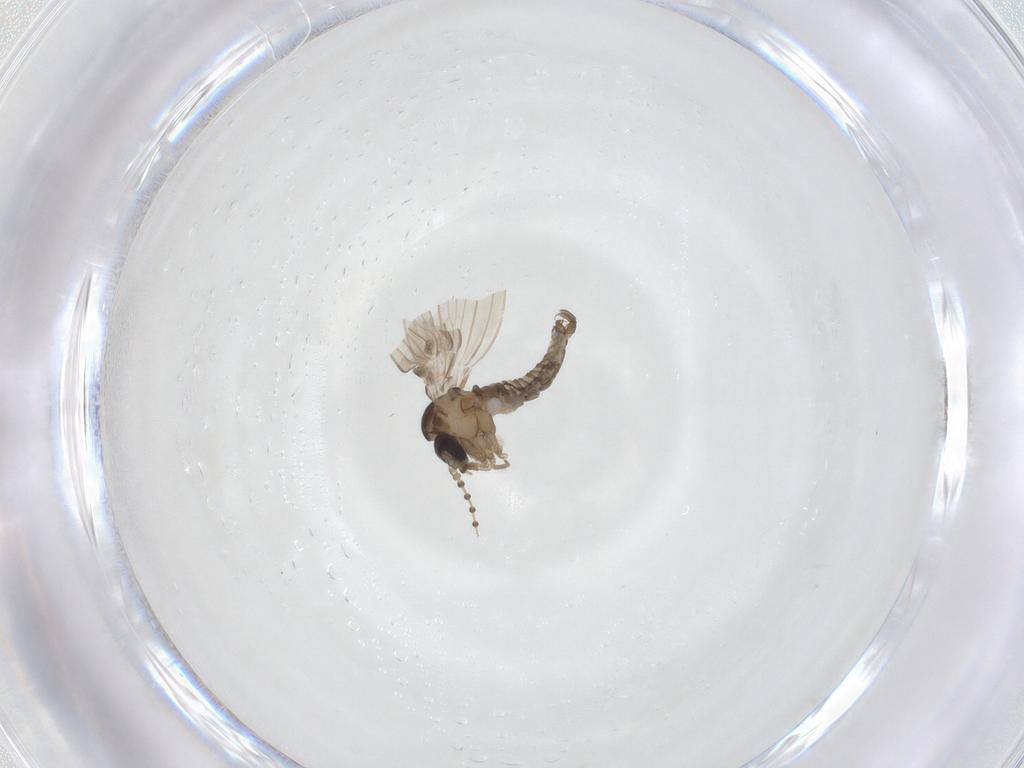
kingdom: Animalia
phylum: Arthropoda
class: Insecta
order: Diptera
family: Psychodidae
